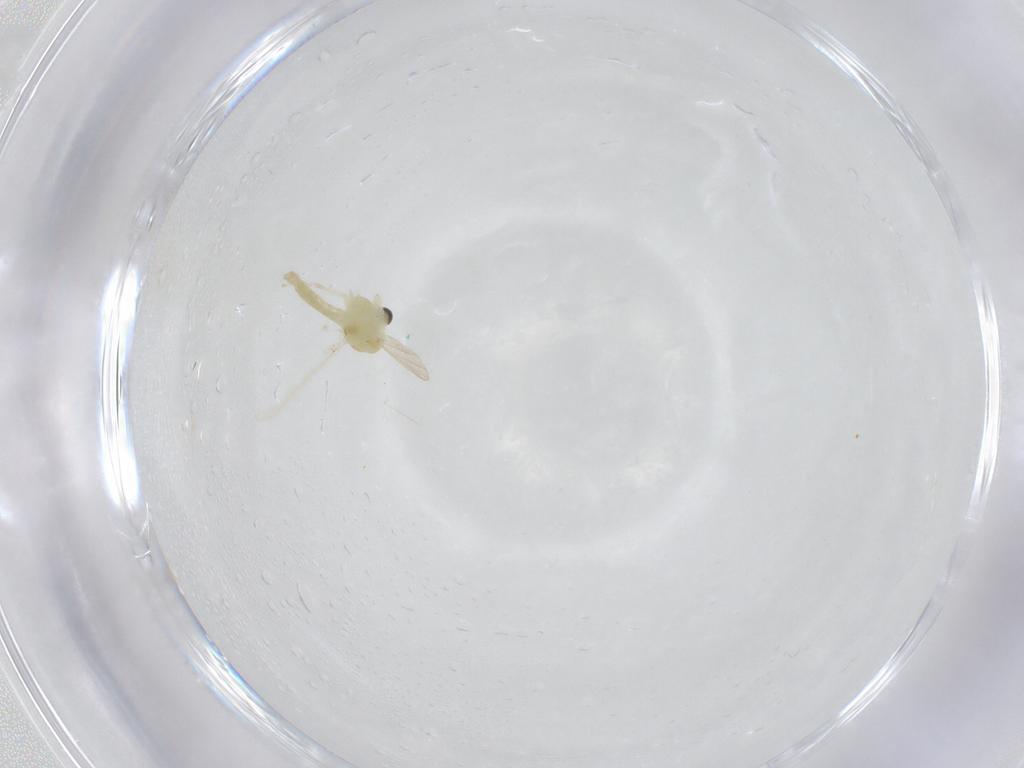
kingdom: Animalia
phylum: Arthropoda
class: Insecta
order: Diptera
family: Chironomidae
